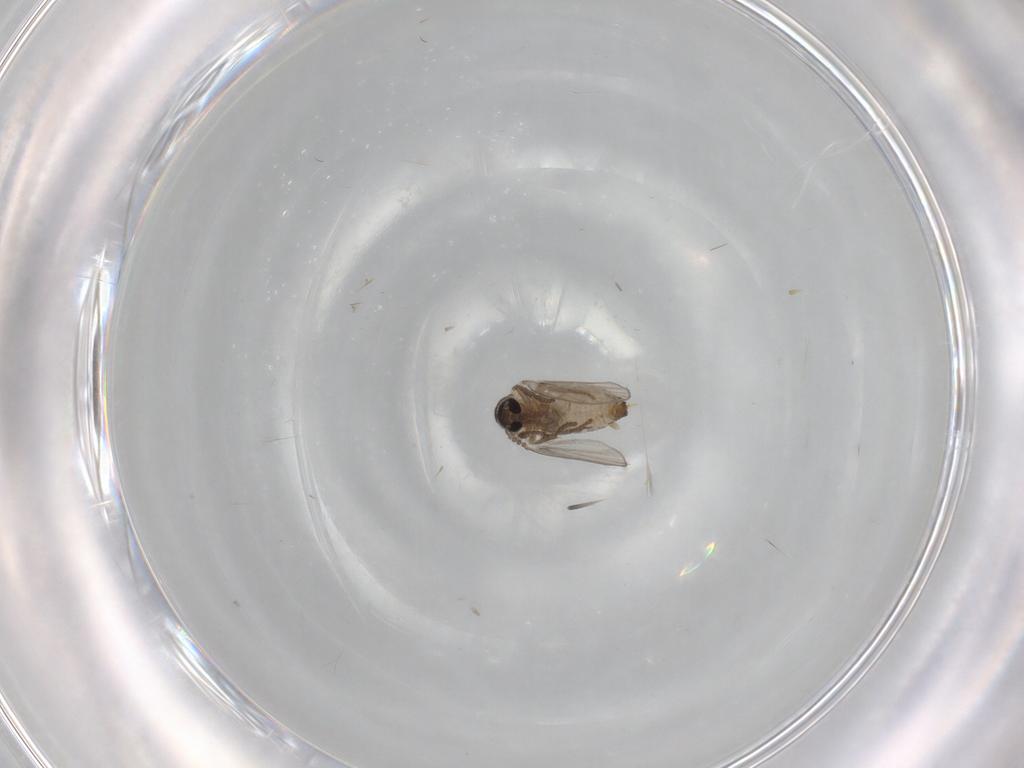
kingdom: Animalia
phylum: Arthropoda
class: Insecta
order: Diptera
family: Psychodidae
